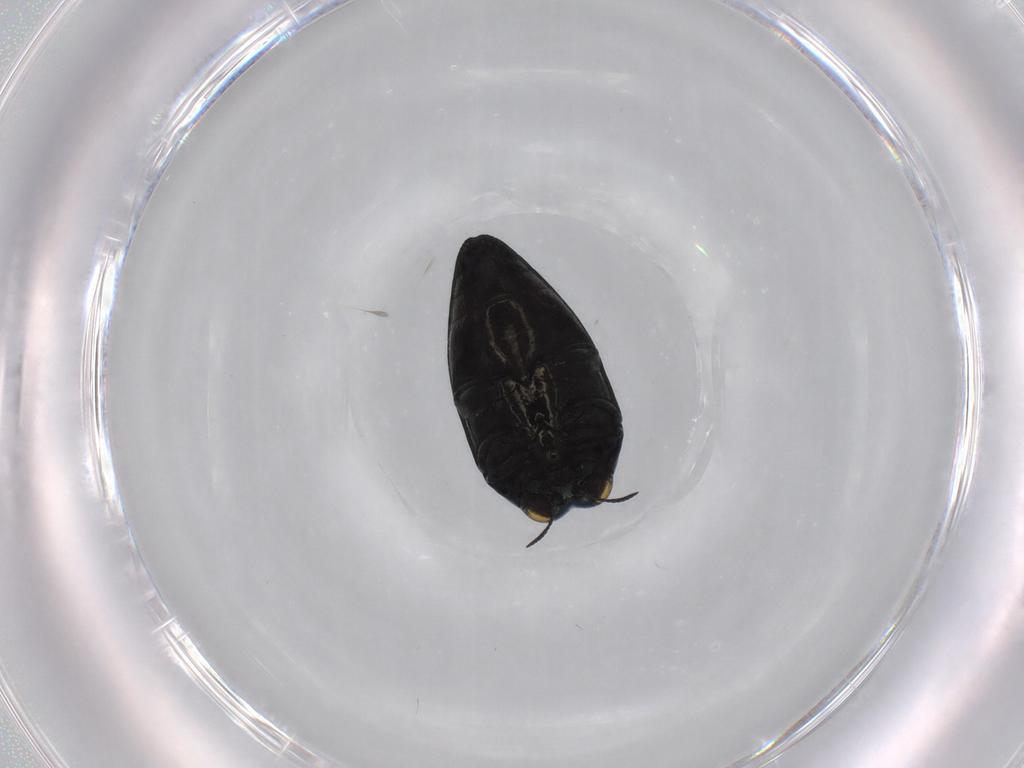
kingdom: Animalia
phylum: Arthropoda
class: Insecta
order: Coleoptera
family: Buprestidae
